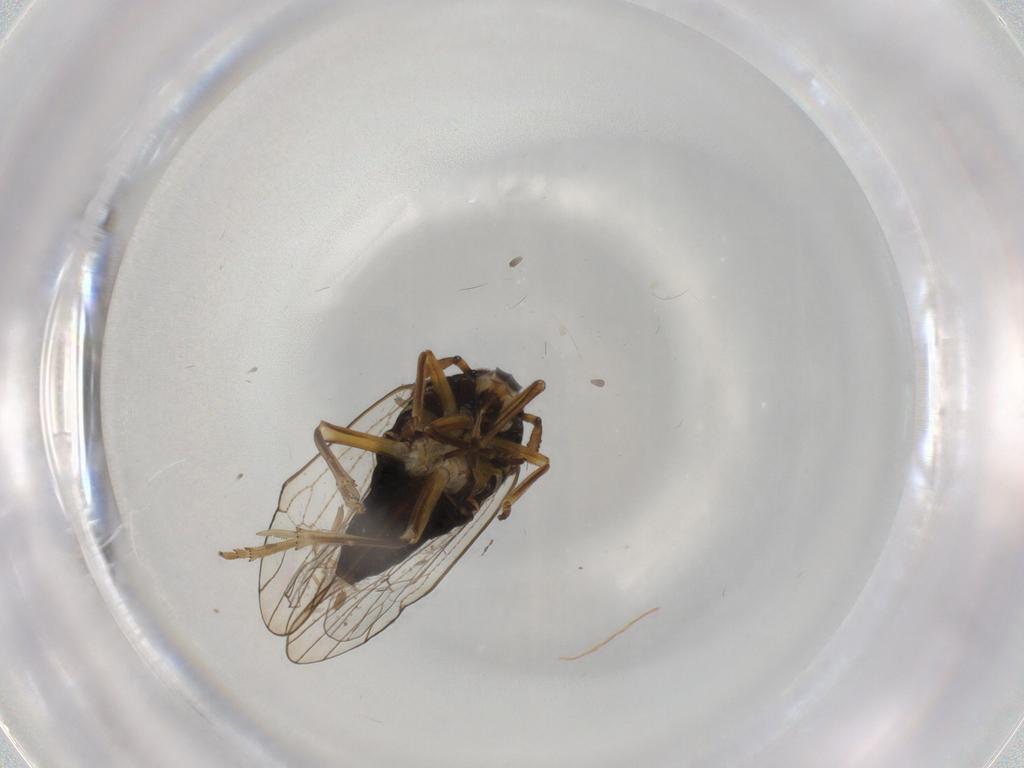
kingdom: Animalia
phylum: Arthropoda
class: Insecta
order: Hemiptera
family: Delphacidae
